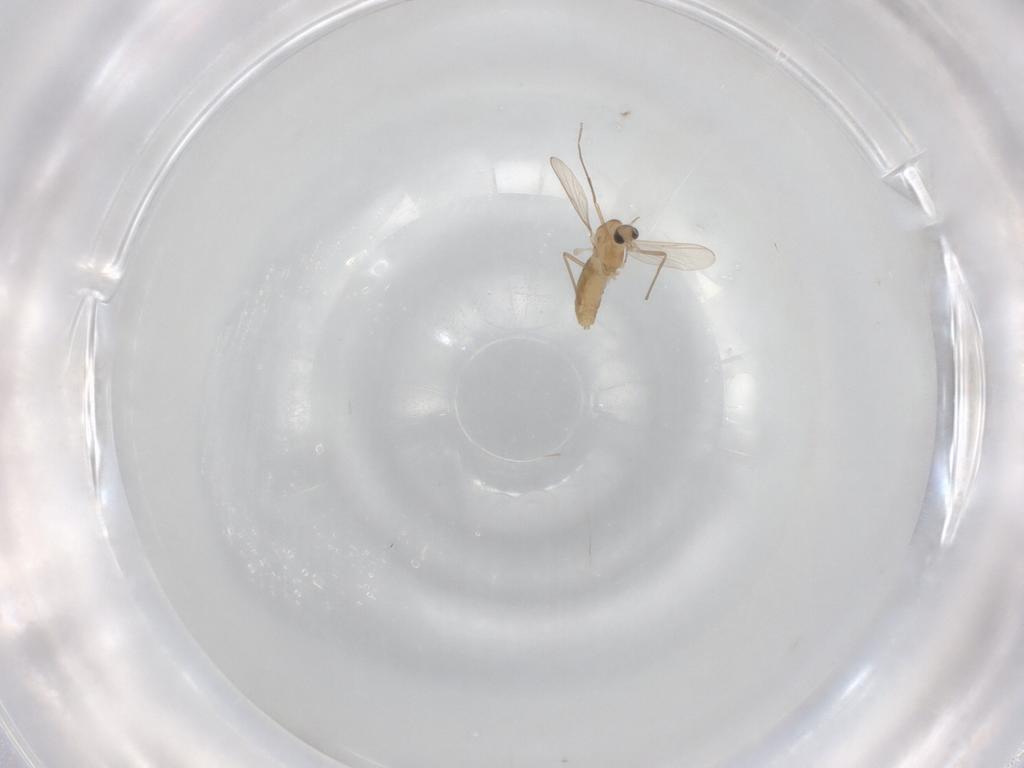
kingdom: Animalia
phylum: Arthropoda
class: Insecta
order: Diptera
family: Chironomidae
